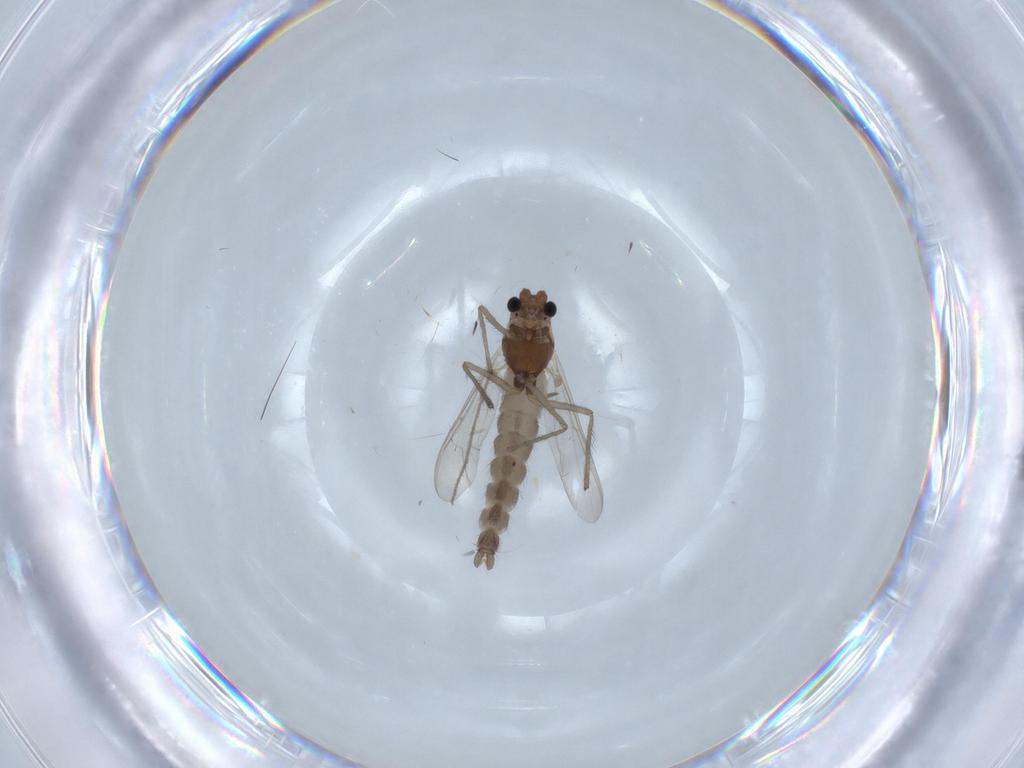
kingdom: Animalia
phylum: Arthropoda
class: Insecta
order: Diptera
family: Chironomidae
